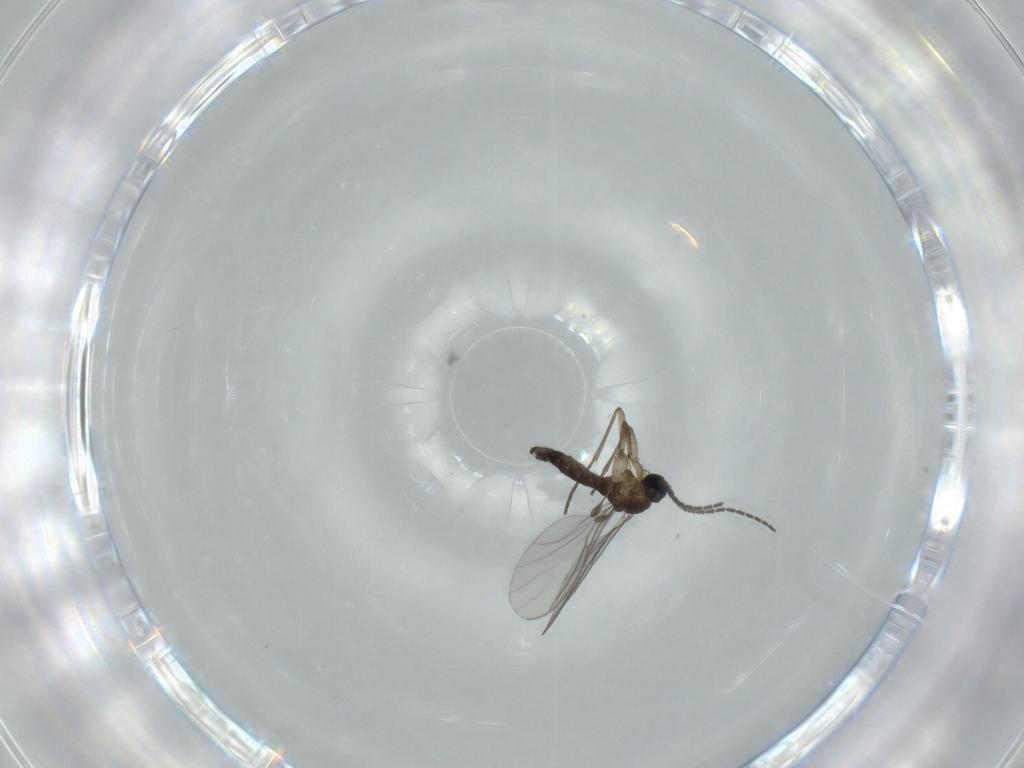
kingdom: Animalia
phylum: Arthropoda
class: Insecta
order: Diptera
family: Sciaridae
